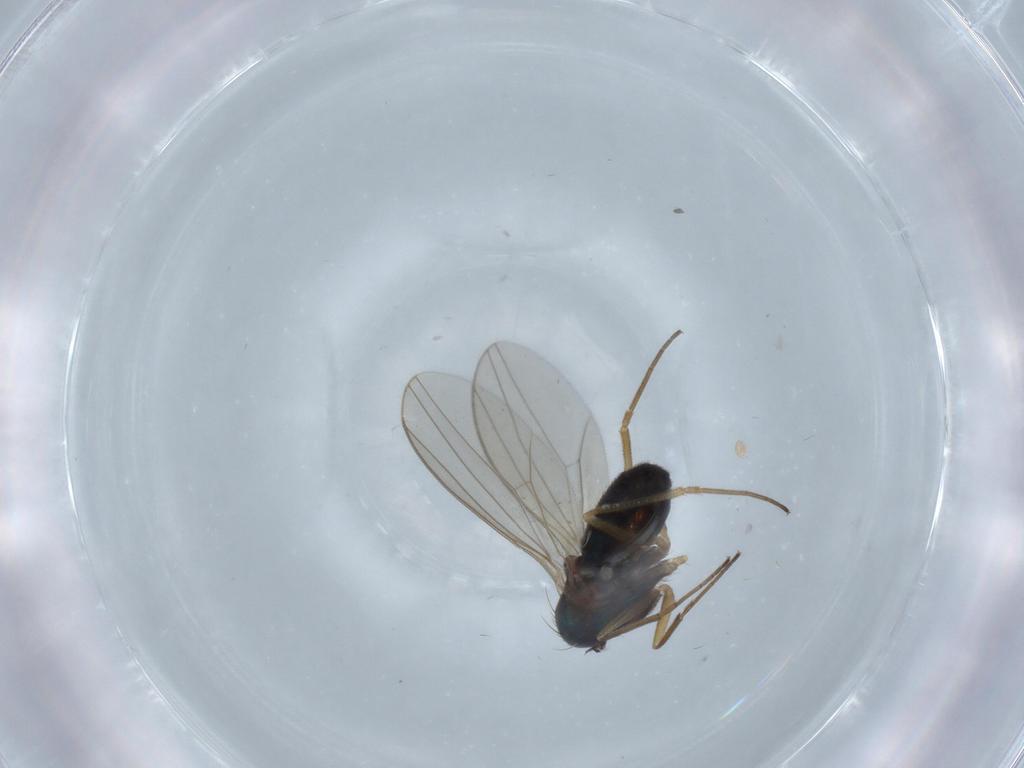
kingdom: Animalia
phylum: Arthropoda
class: Insecta
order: Diptera
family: Dolichopodidae
